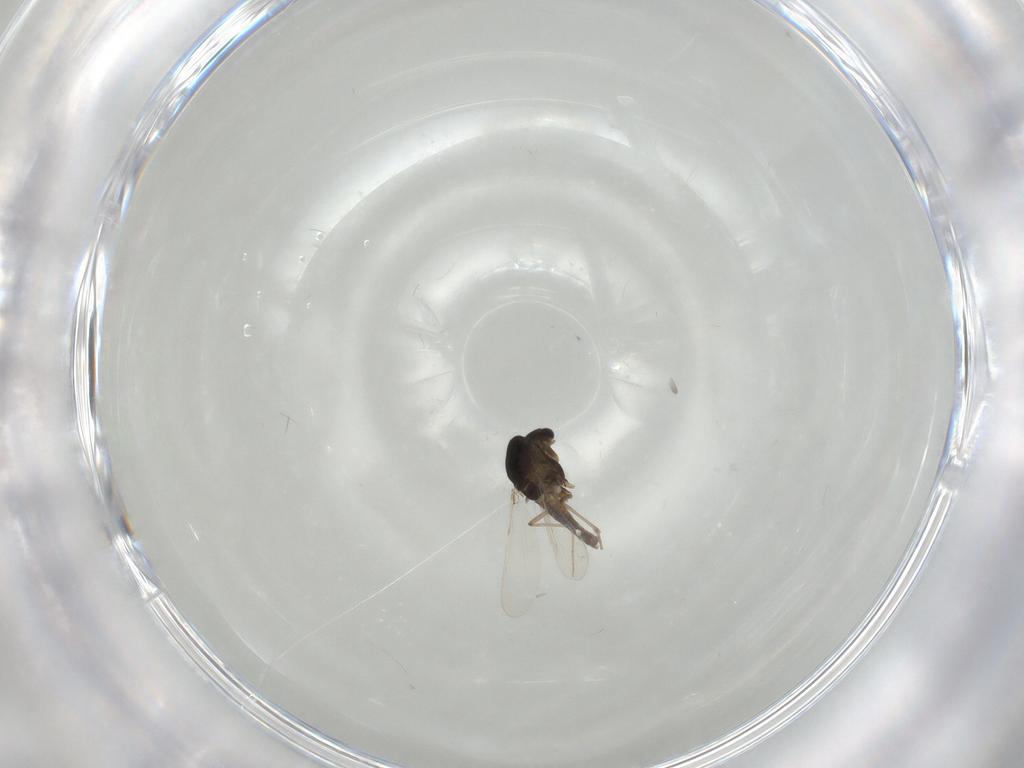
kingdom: Animalia
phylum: Arthropoda
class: Insecta
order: Diptera
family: Chironomidae
